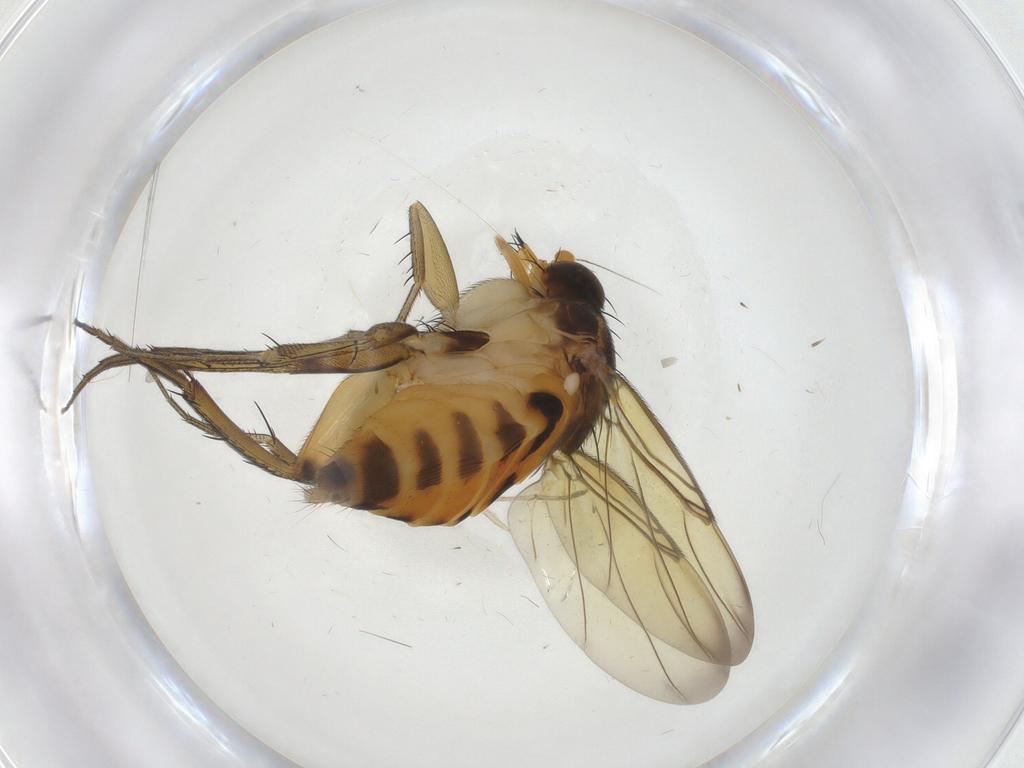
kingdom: Animalia
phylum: Arthropoda
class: Insecta
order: Diptera
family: Phoridae
